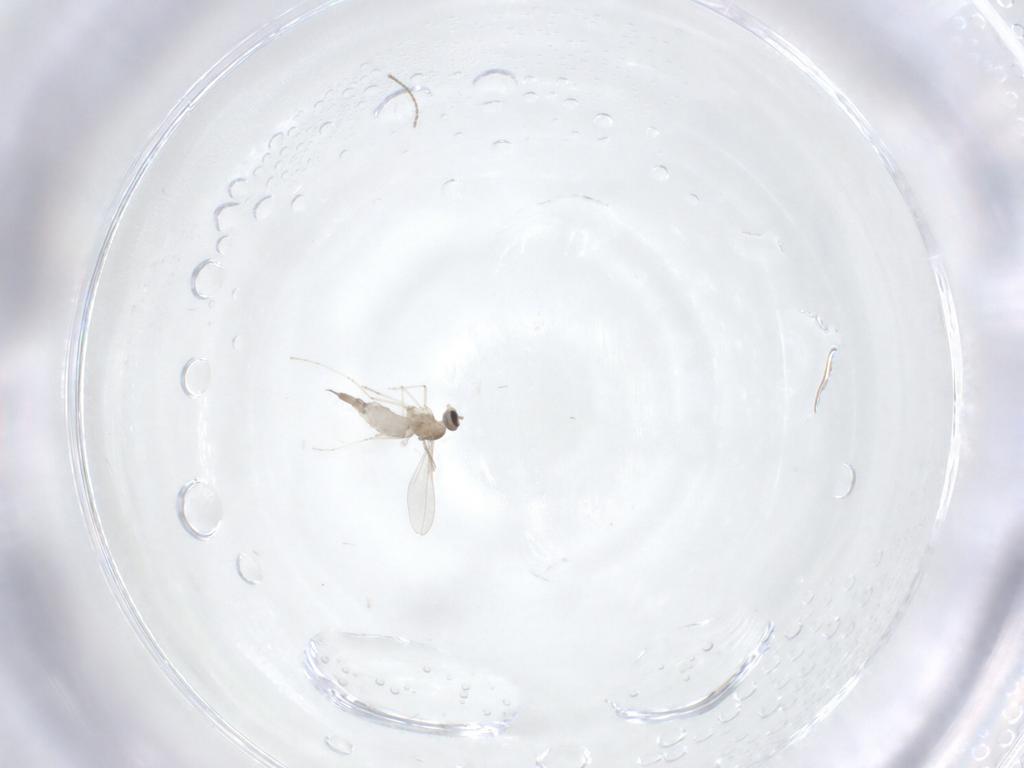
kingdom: Animalia
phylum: Arthropoda
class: Insecta
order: Diptera
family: Cecidomyiidae
